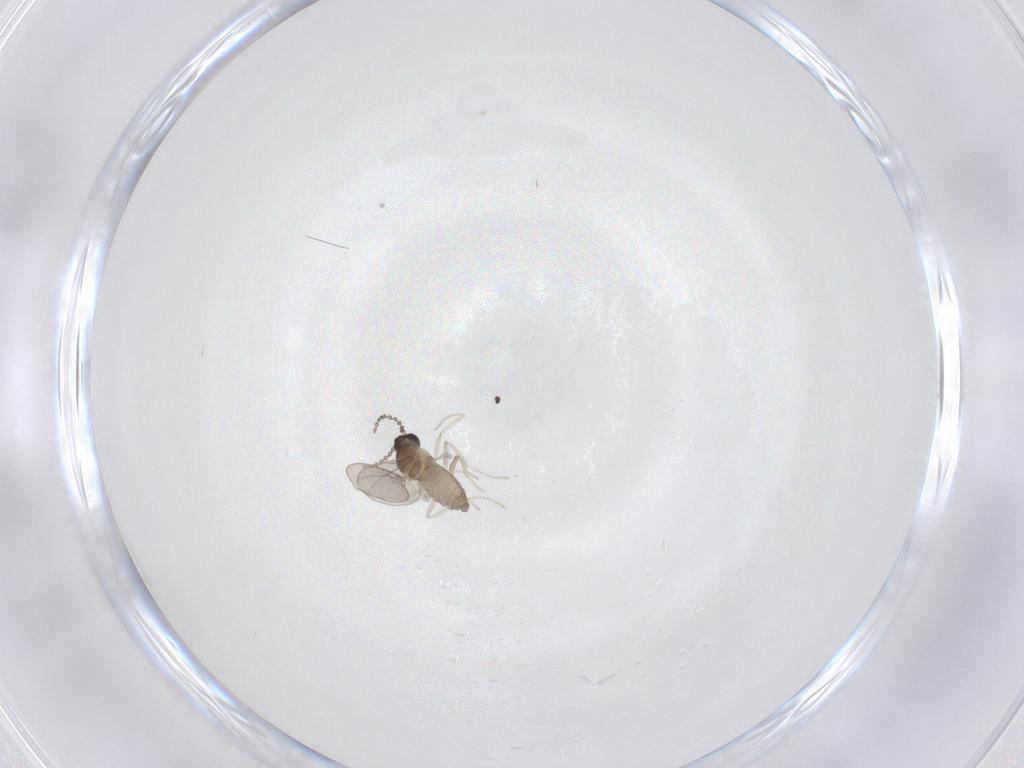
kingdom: Animalia
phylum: Arthropoda
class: Insecta
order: Diptera
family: Cecidomyiidae
